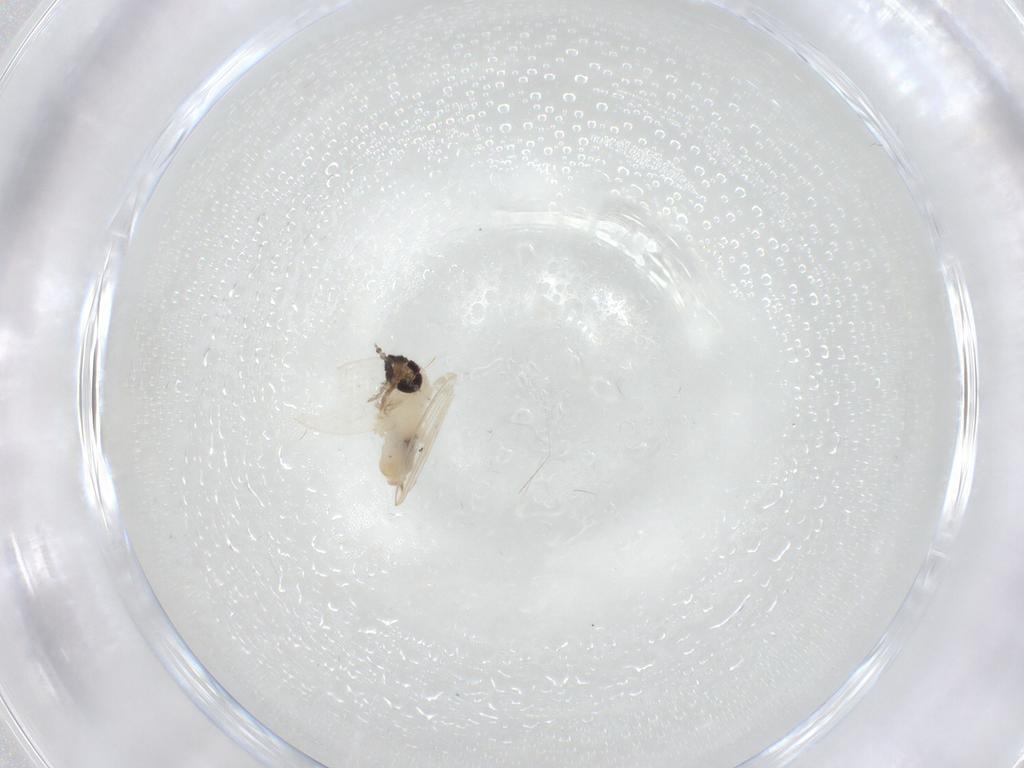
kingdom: Animalia
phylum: Arthropoda
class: Insecta
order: Diptera
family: Psychodidae
